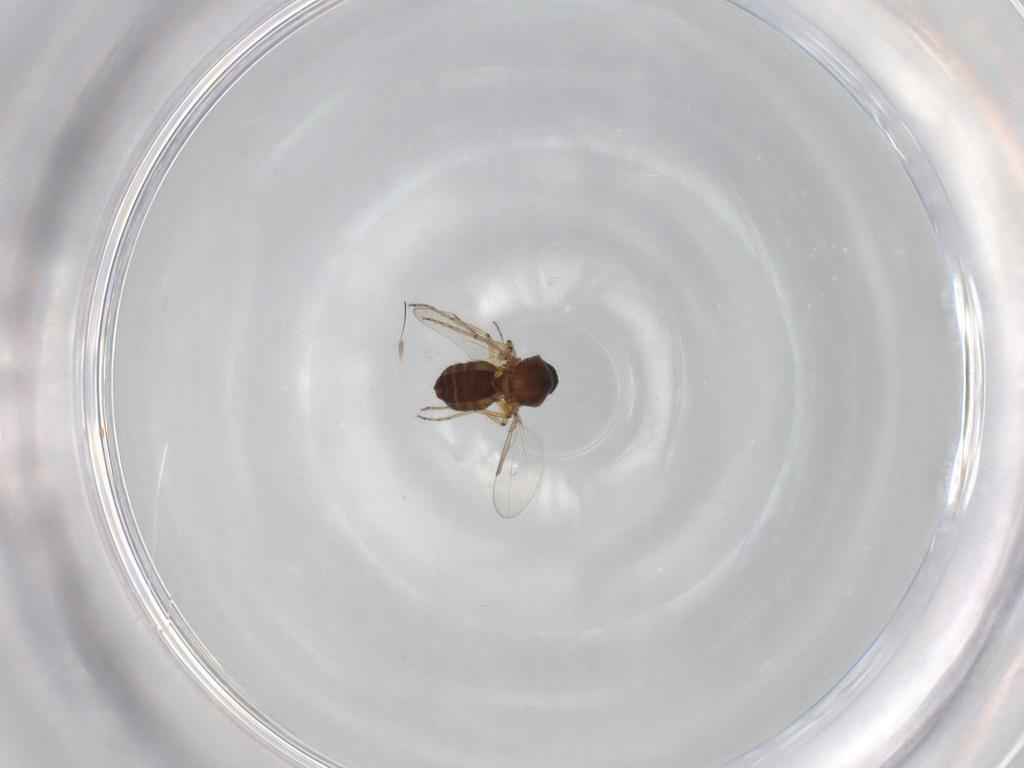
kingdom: Animalia
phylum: Arthropoda
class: Insecta
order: Diptera
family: Ceratopogonidae
